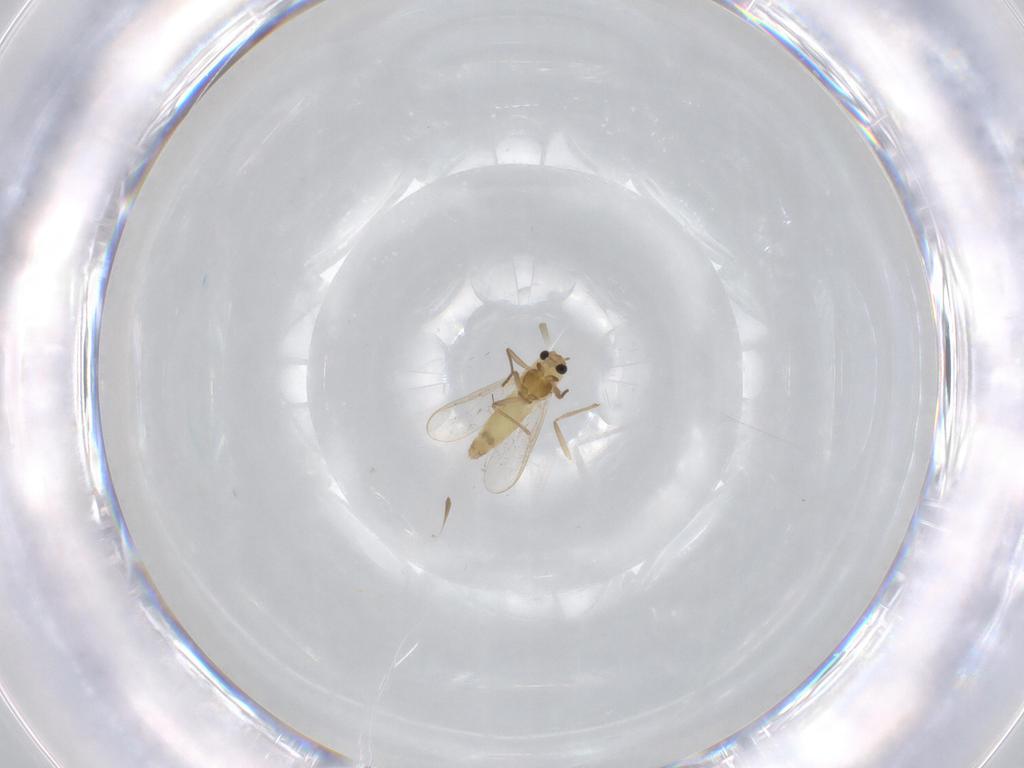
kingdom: Animalia
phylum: Arthropoda
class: Insecta
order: Diptera
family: Chironomidae
